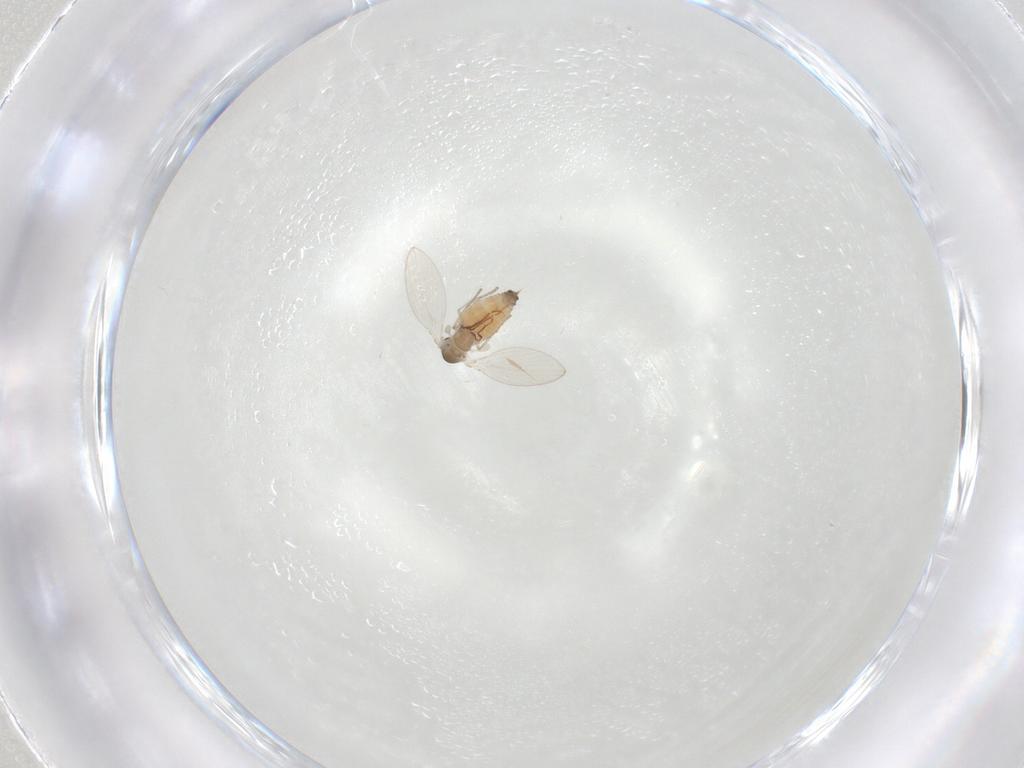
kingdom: Animalia
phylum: Arthropoda
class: Insecta
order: Diptera
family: Psychodidae
